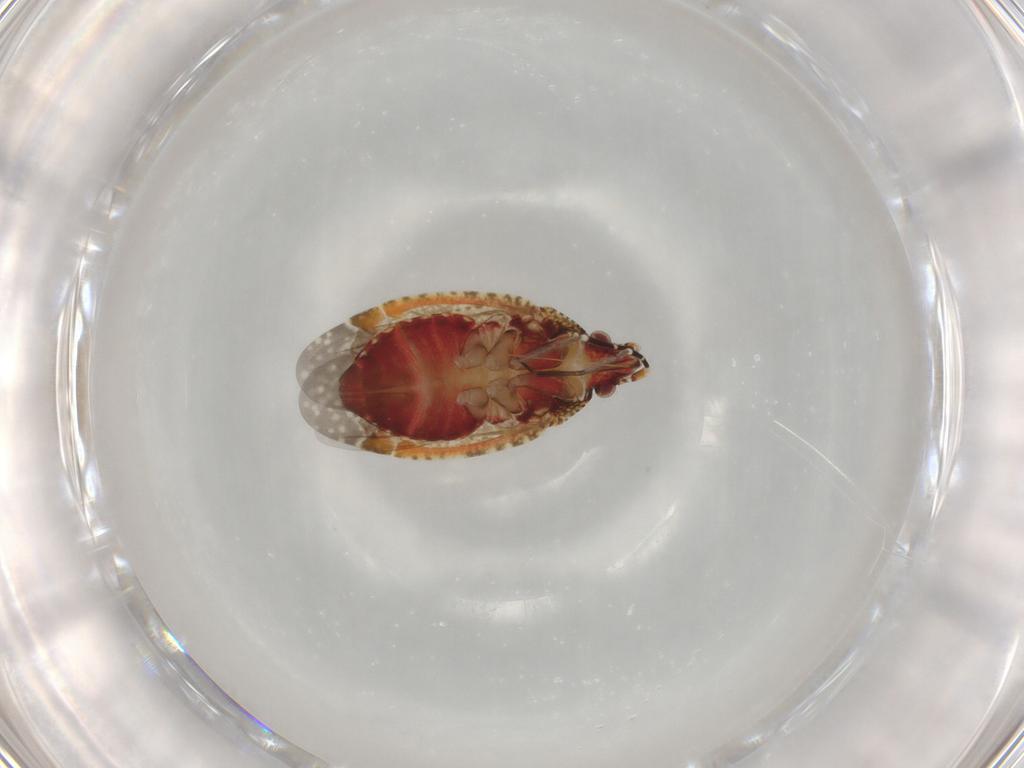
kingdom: Animalia
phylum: Arthropoda
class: Insecta
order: Hemiptera
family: Miridae
